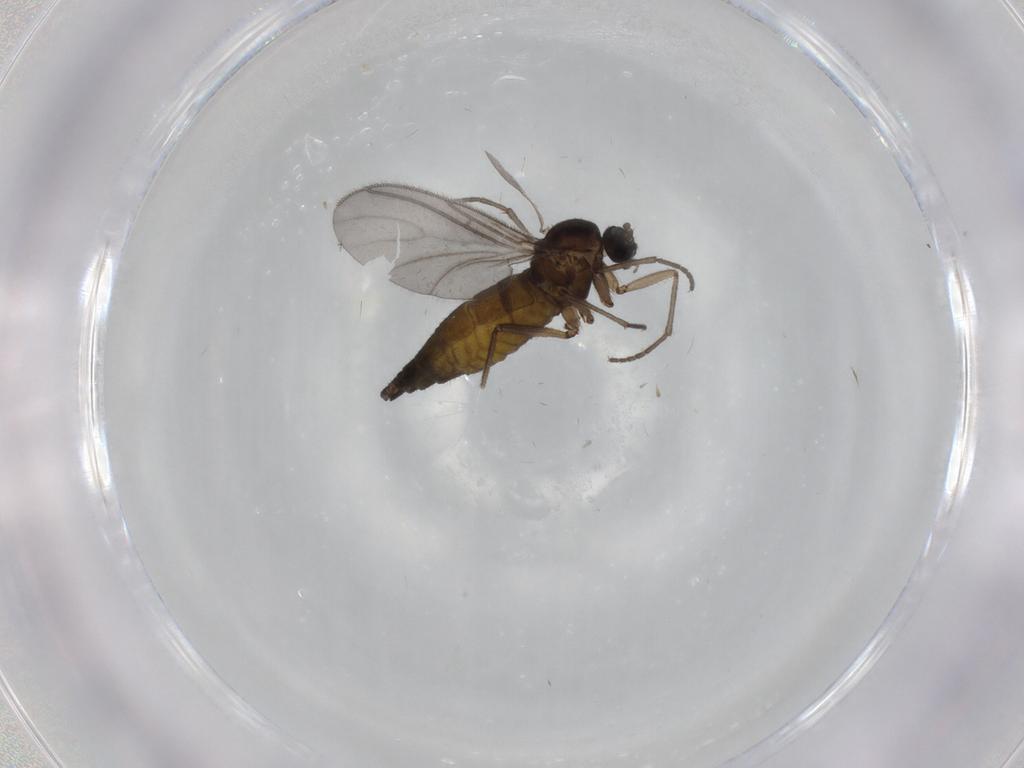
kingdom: Animalia
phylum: Arthropoda
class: Insecta
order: Diptera
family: Sciaridae
